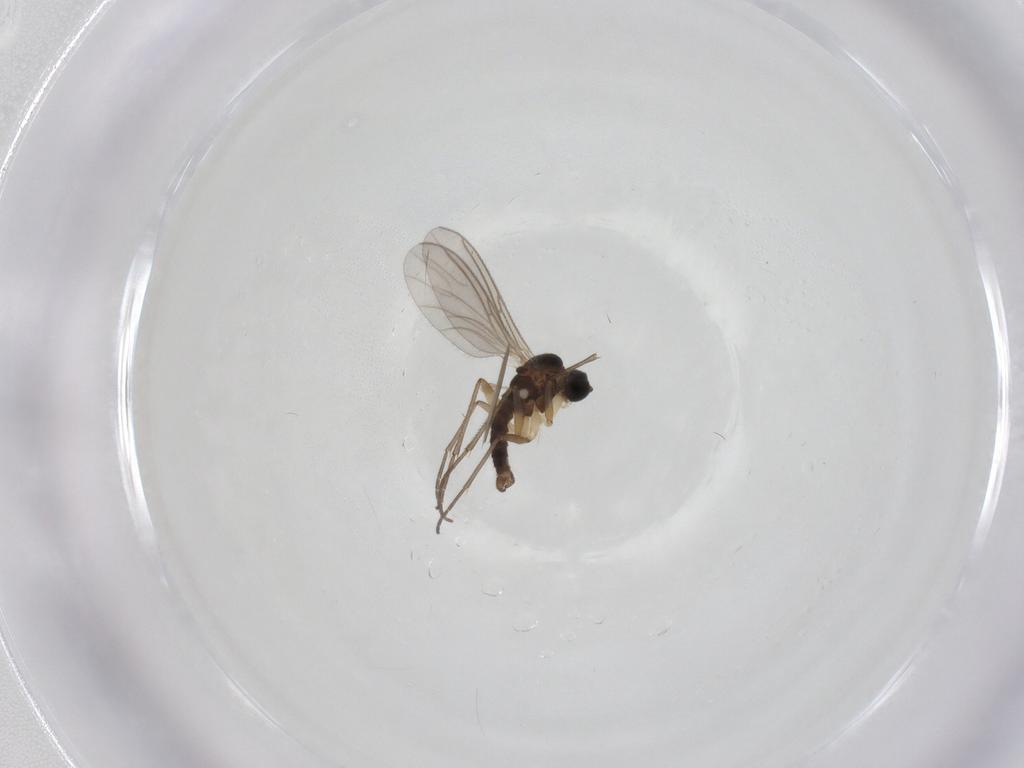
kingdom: Animalia
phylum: Arthropoda
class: Insecta
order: Diptera
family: Sciaridae
